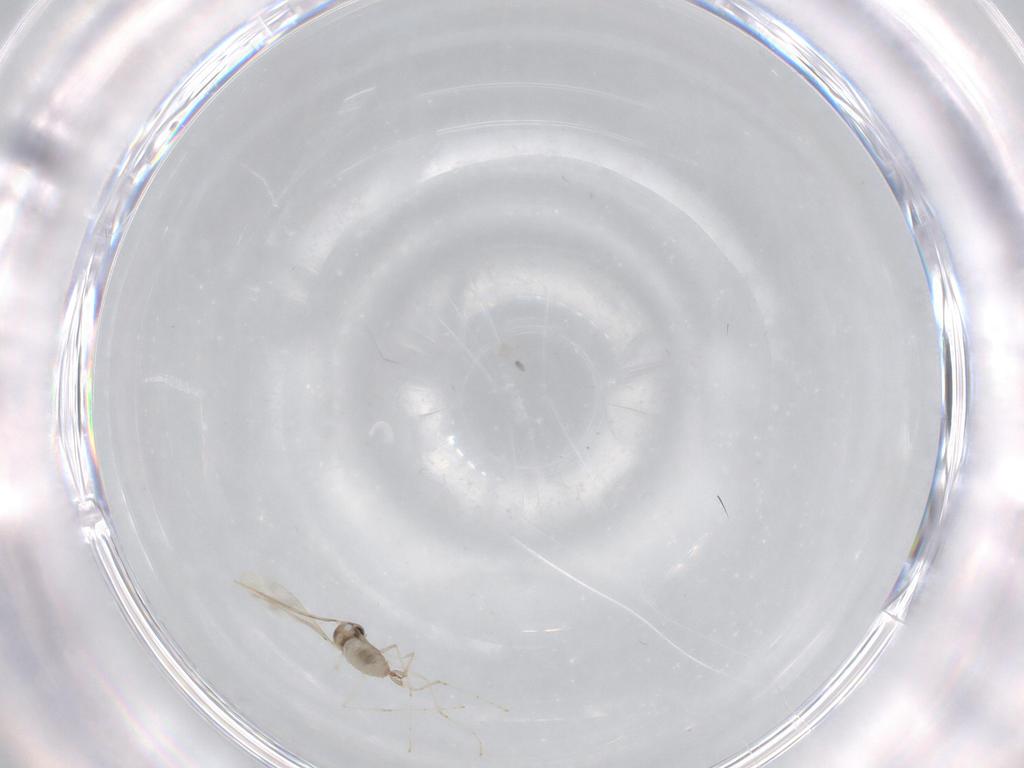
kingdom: Animalia
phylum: Arthropoda
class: Insecta
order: Diptera
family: Cecidomyiidae
